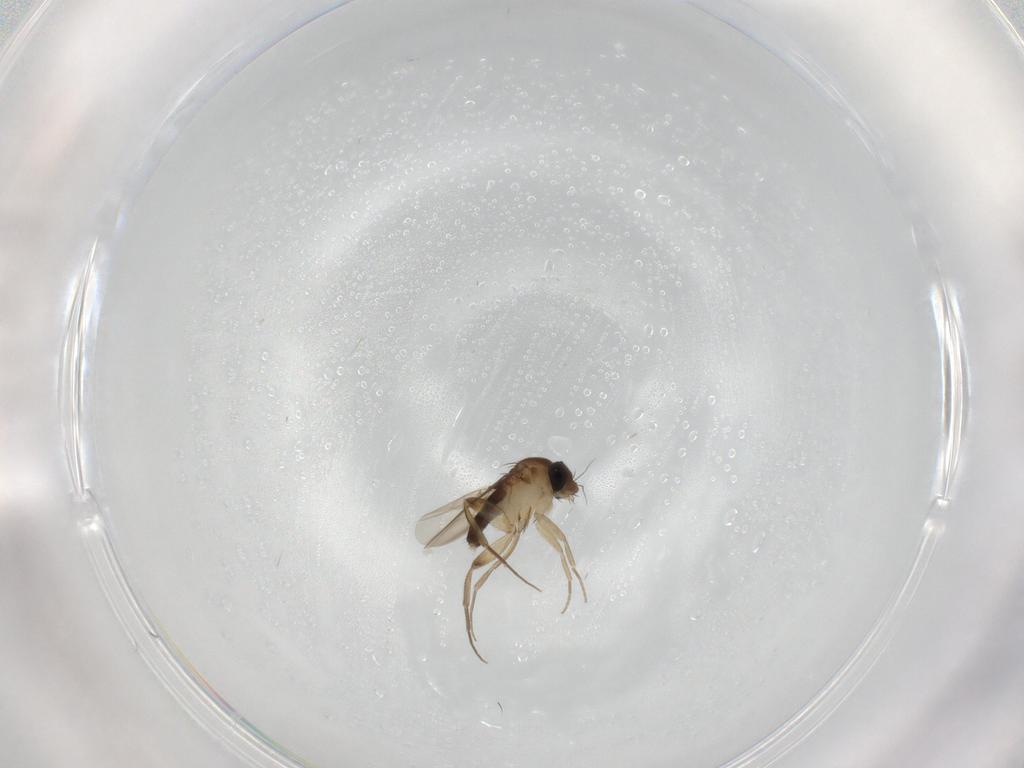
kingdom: Animalia
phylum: Arthropoda
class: Insecta
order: Diptera
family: Phoridae
